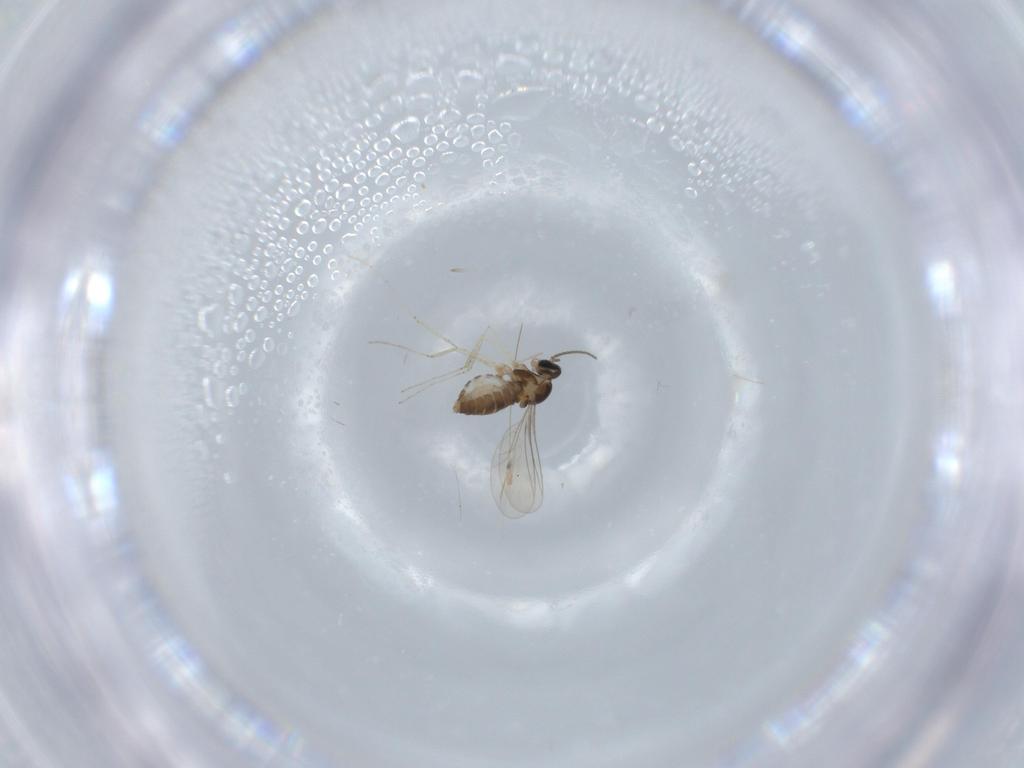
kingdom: Animalia
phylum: Arthropoda
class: Insecta
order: Diptera
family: Cecidomyiidae
